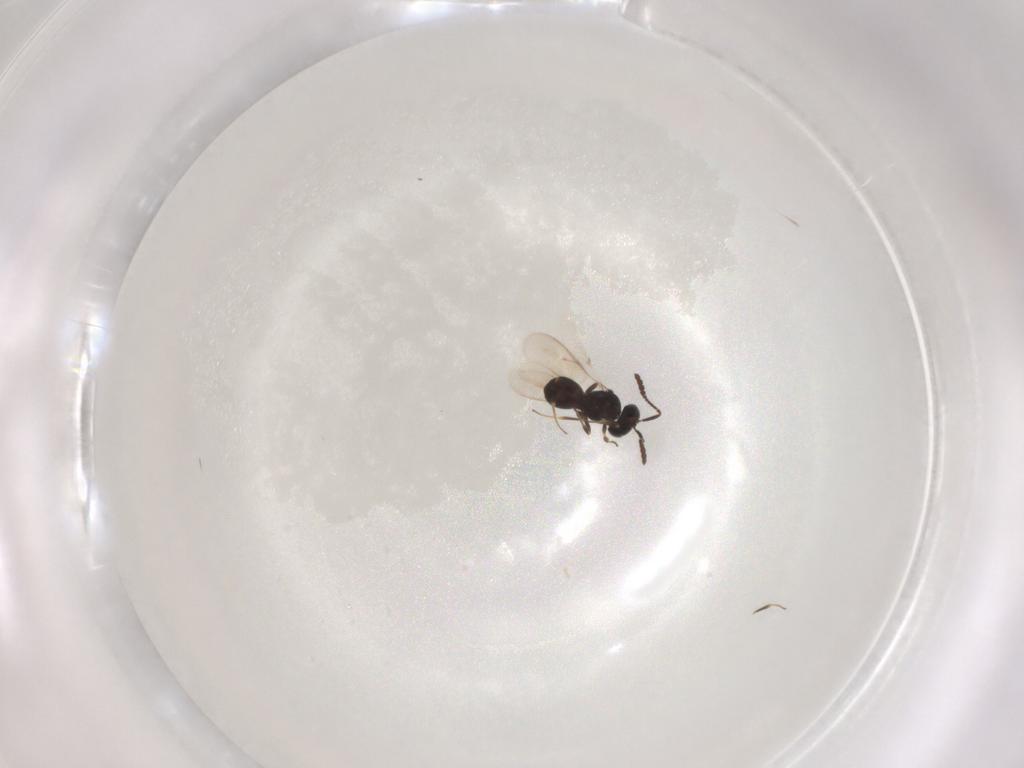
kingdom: Animalia
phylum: Arthropoda
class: Insecta
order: Hymenoptera
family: Scelionidae
